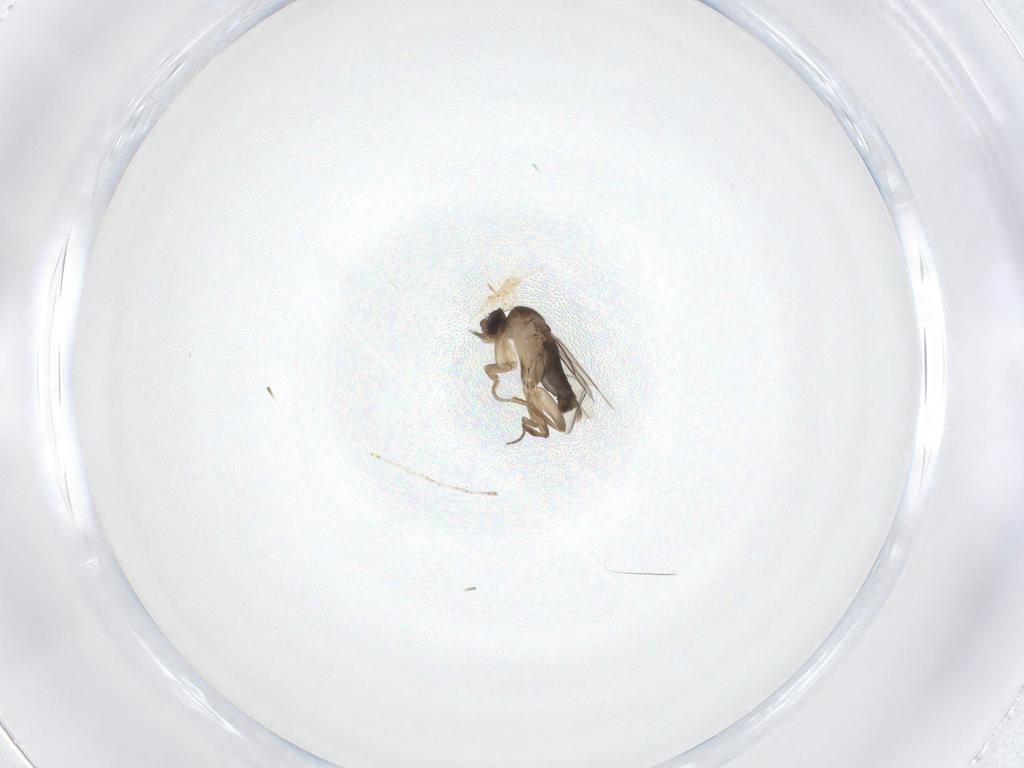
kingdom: Animalia
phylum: Arthropoda
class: Insecta
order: Diptera
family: Phoridae
